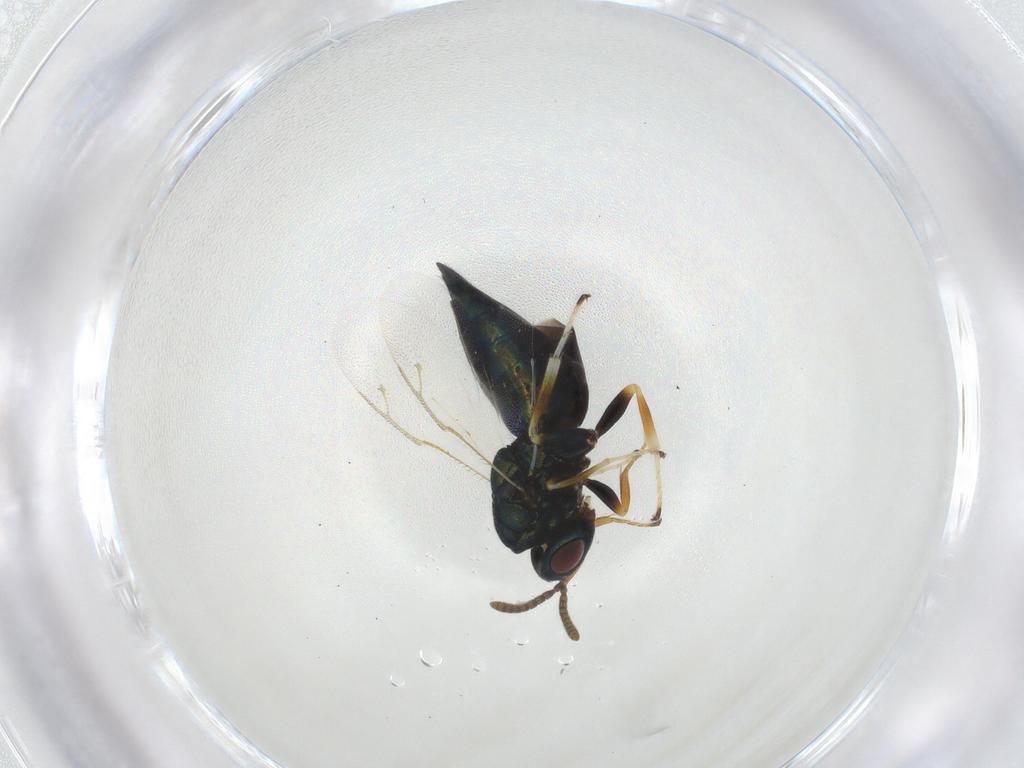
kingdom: Animalia
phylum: Arthropoda
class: Insecta
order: Hymenoptera
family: Pteromalidae
